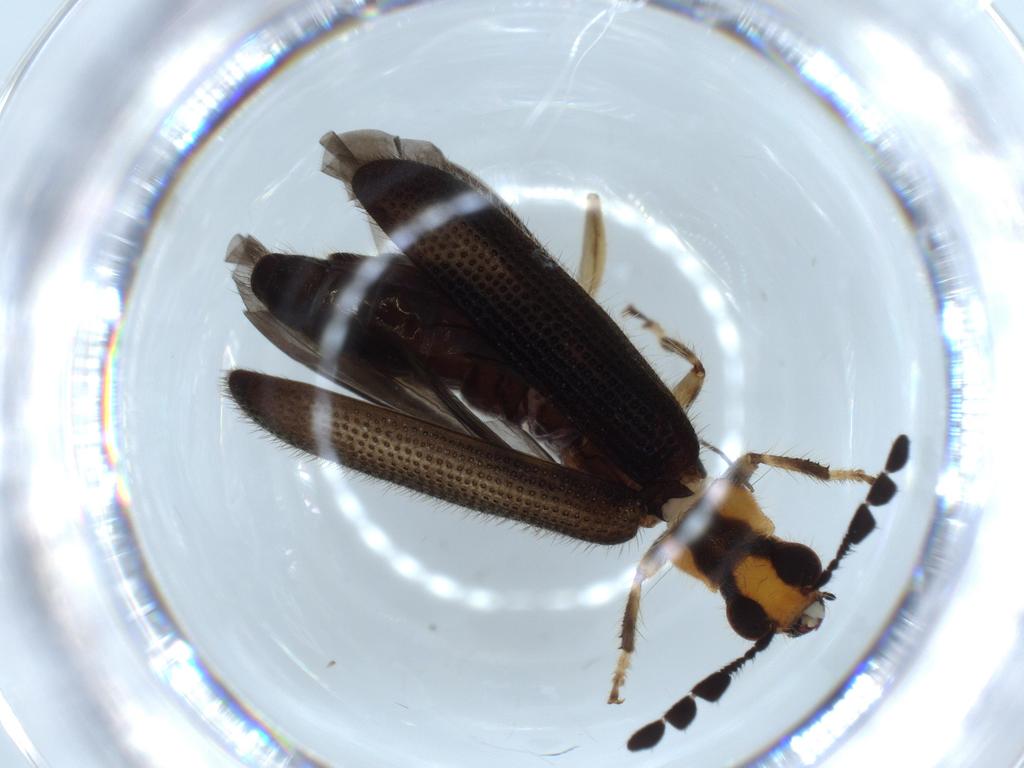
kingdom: Animalia
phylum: Arthropoda
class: Insecta
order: Coleoptera
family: Cleridae
